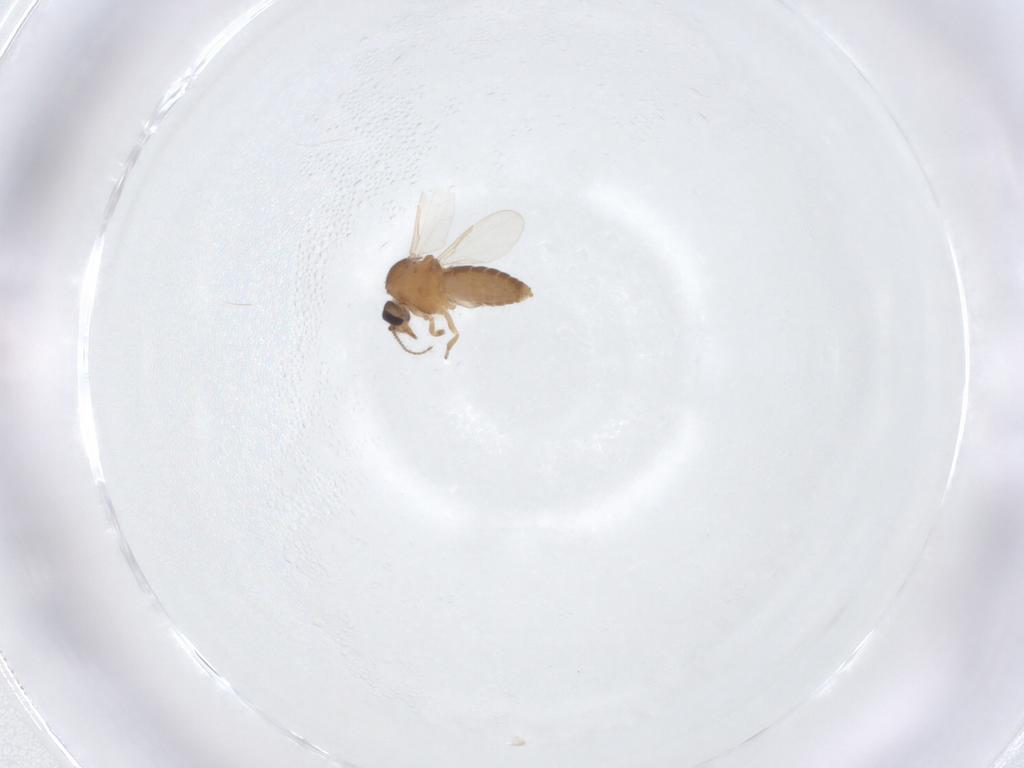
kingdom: Animalia
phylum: Arthropoda
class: Insecta
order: Diptera
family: Ceratopogonidae
